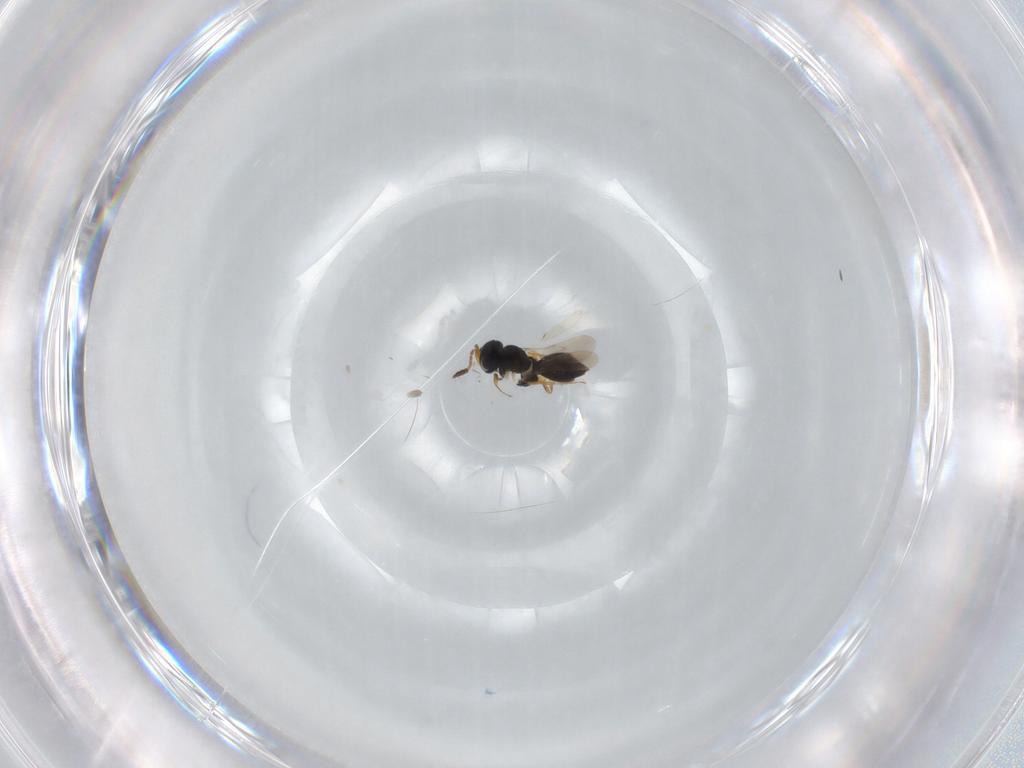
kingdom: Animalia
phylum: Arthropoda
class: Insecta
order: Hymenoptera
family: Scelionidae
